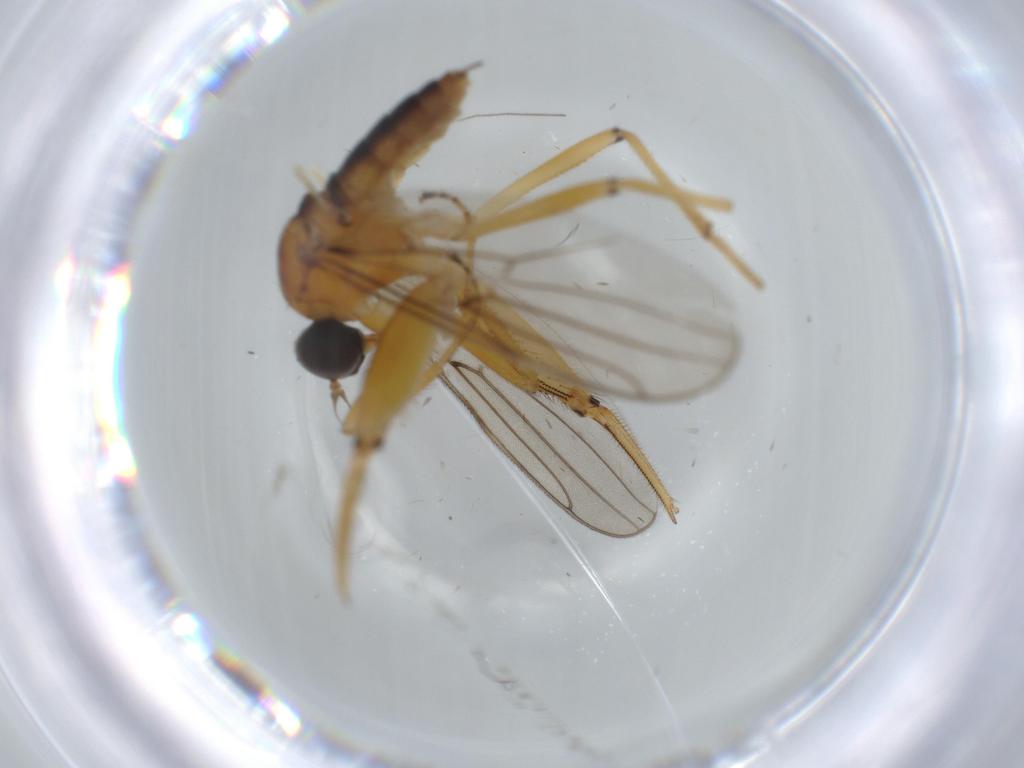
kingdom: Animalia
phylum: Arthropoda
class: Insecta
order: Diptera
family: Hybotidae
